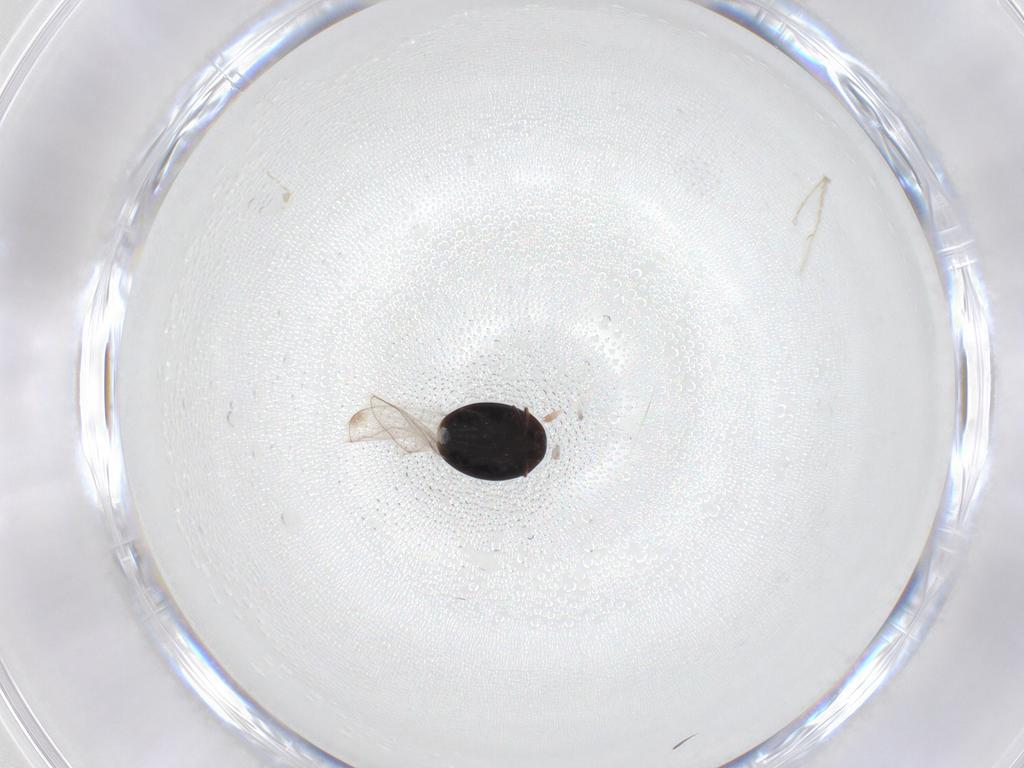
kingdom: Animalia
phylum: Arthropoda
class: Insecta
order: Coleoptera
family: Corylophidae
